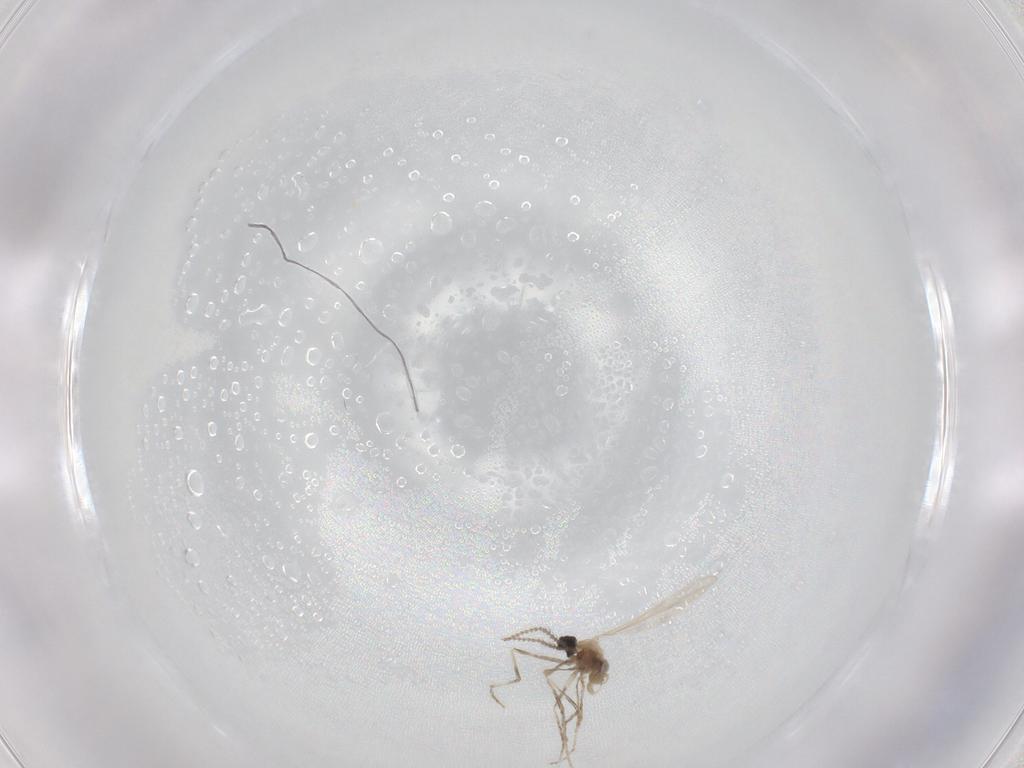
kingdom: Animalia
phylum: Arthropoda
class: Insecta
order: Diptera
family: Cecidomyiidae
